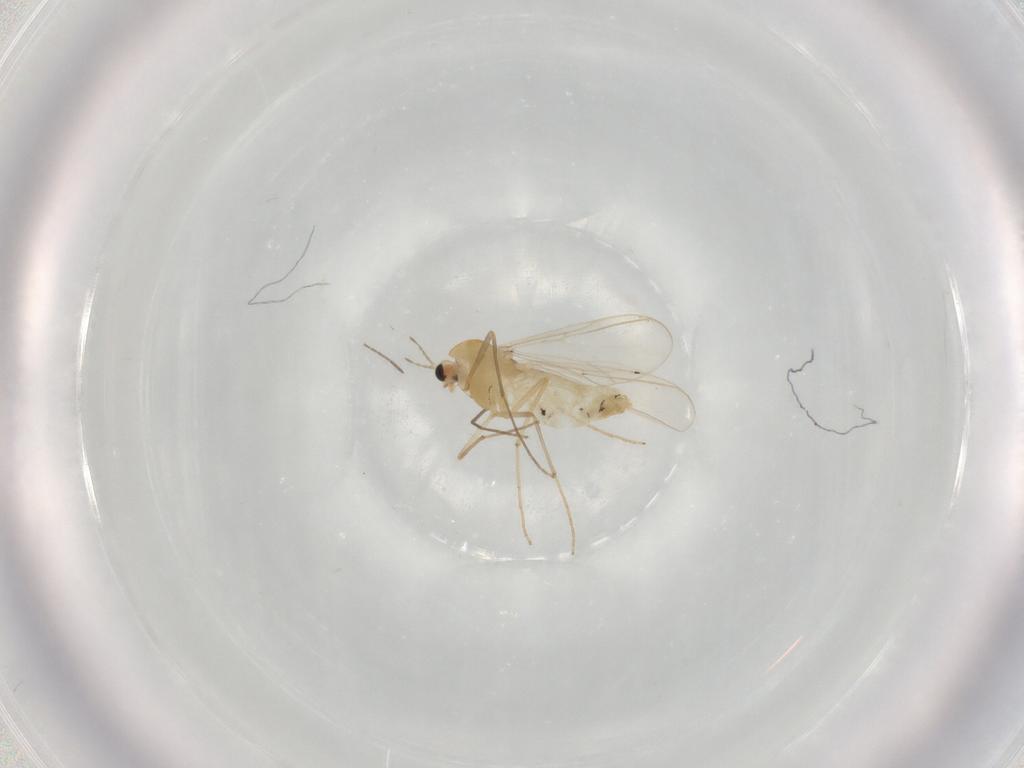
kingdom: Animalia
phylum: Arthropoda
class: Insecta
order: Diptera
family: Chironomidae
